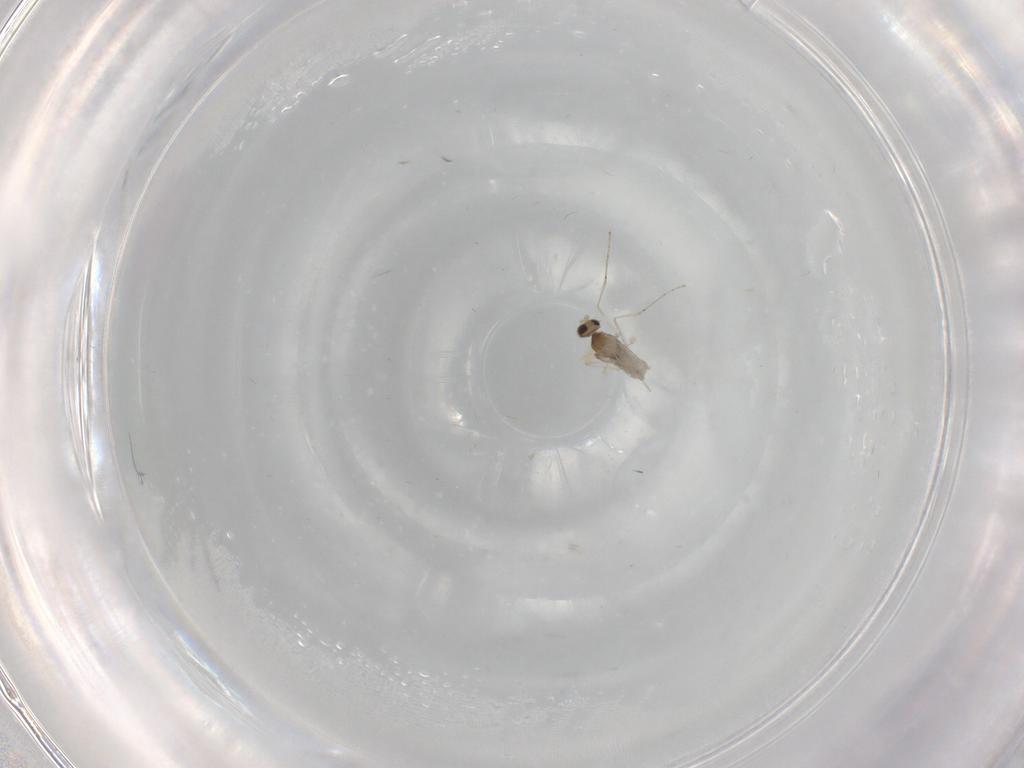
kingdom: Animalia
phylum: Arthropoda
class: Insecta
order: Diptera
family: Cecidomyiidae
